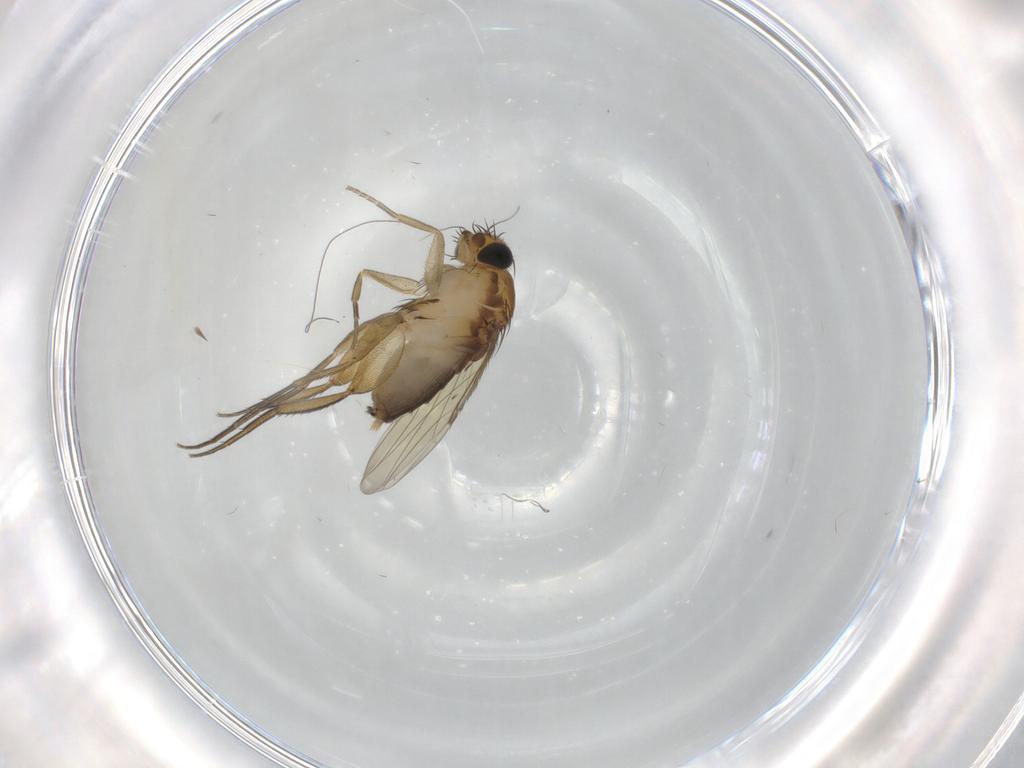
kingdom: Animalia
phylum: Arthropoda
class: Insecta
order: Diptera
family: Phoridae
